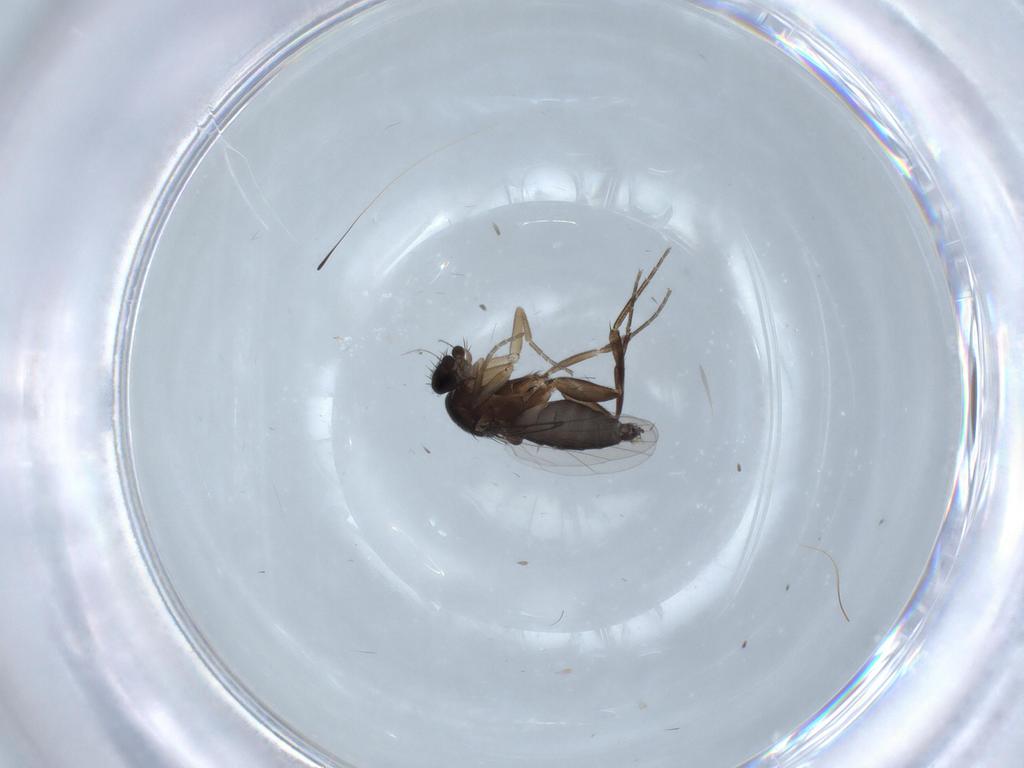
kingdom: Animalia
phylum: Arthropoda
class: Insecta
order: Diptera
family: Phoridae
